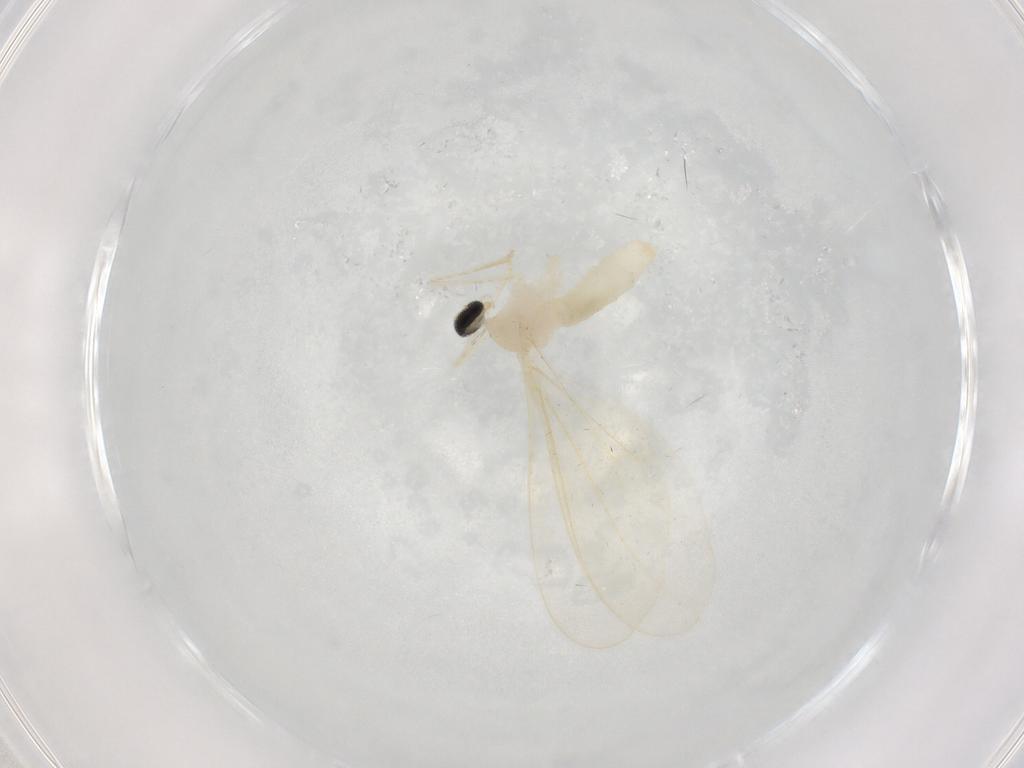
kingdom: Animalia
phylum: Arthropoda
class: Insecta
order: Diptera
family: Cecidomyiidae
